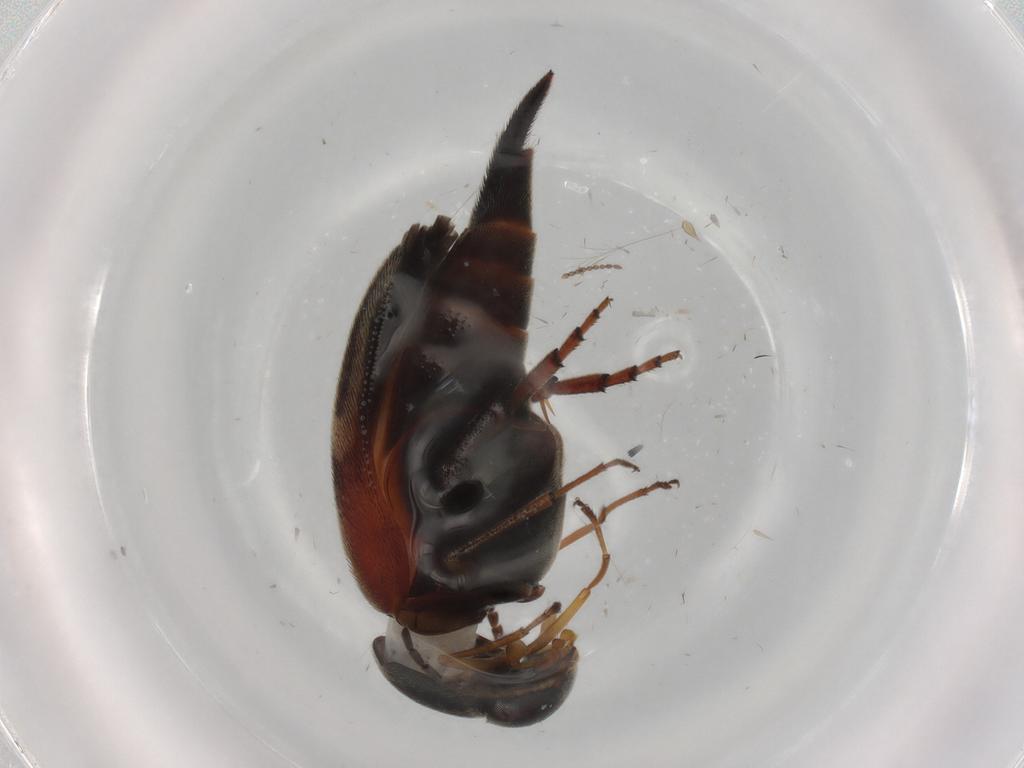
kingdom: Animalia
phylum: Arthropoda
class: Insecta
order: Coleoptera
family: Chrysomelidae
